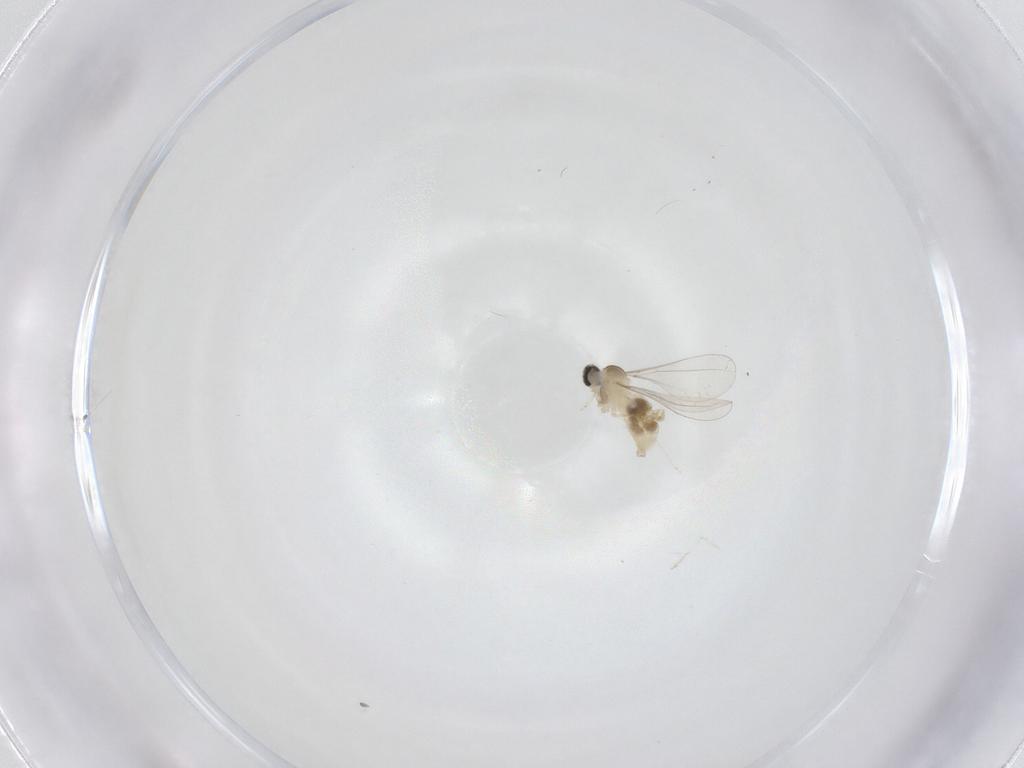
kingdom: Animalia
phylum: Arthropoda
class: Insecta
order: Diptera
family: Cecidomyiidae
